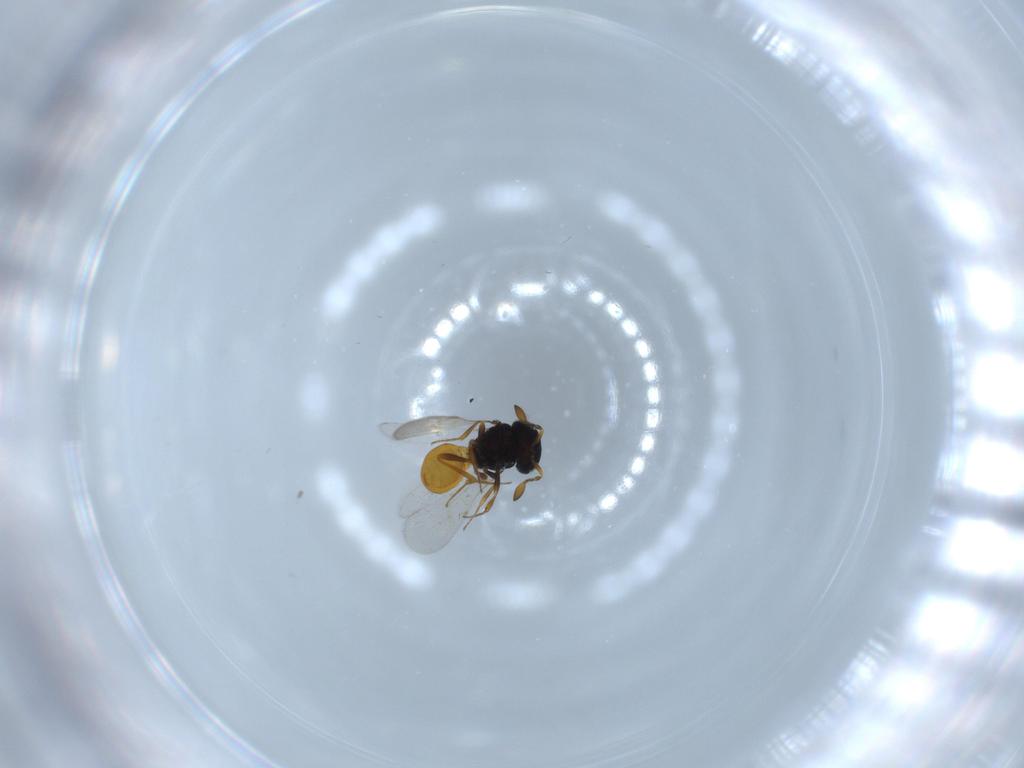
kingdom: Animalia
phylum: Arthropoda
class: Insecta
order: Hymenoptera
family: Scelionidae
